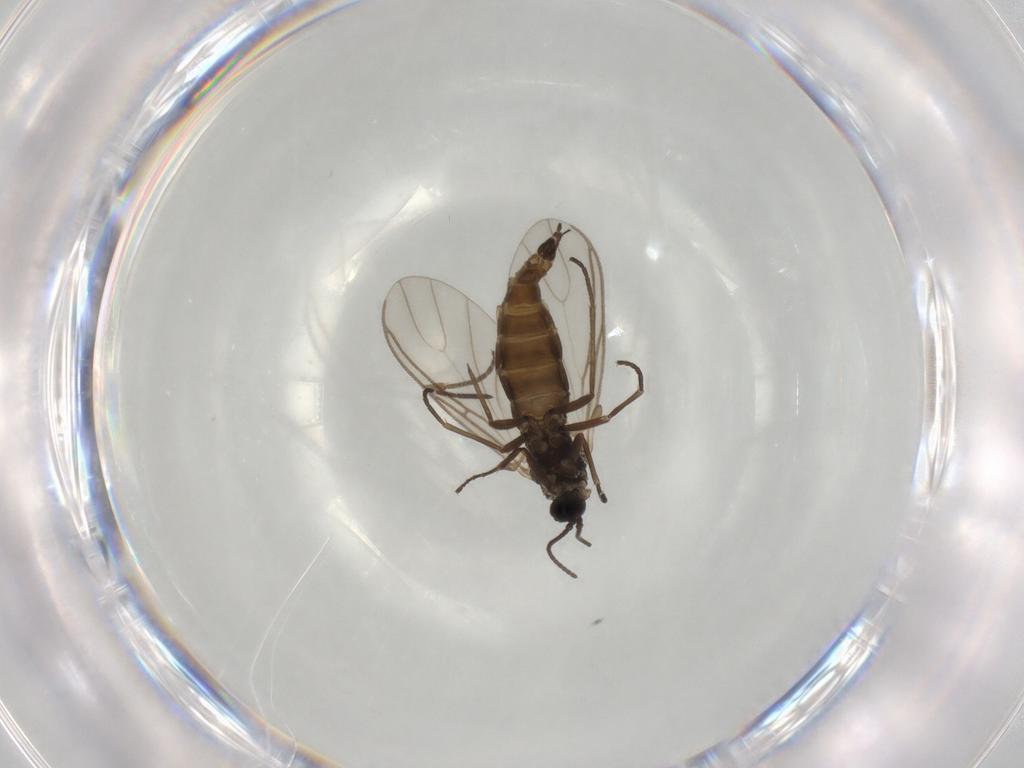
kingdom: Animalia
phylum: Arthropoda
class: Insecta
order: Diptera
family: Sciaridae
